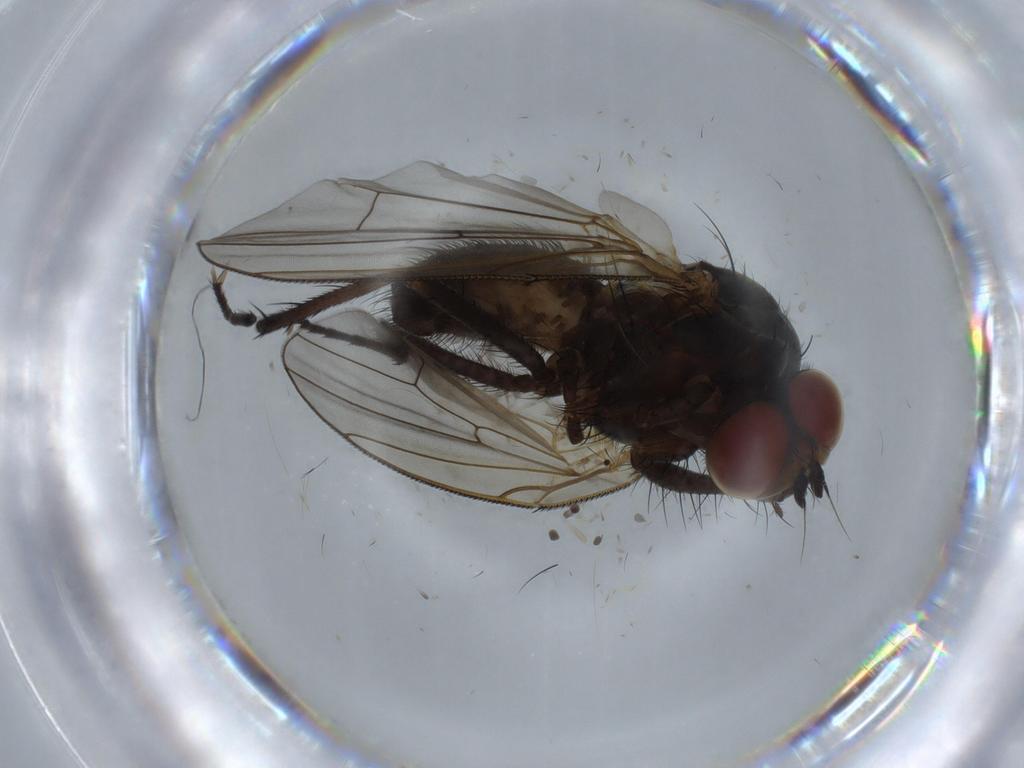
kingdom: Animalia
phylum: Arthropoda
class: Insecta
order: Diptera
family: Anthomyiidae
